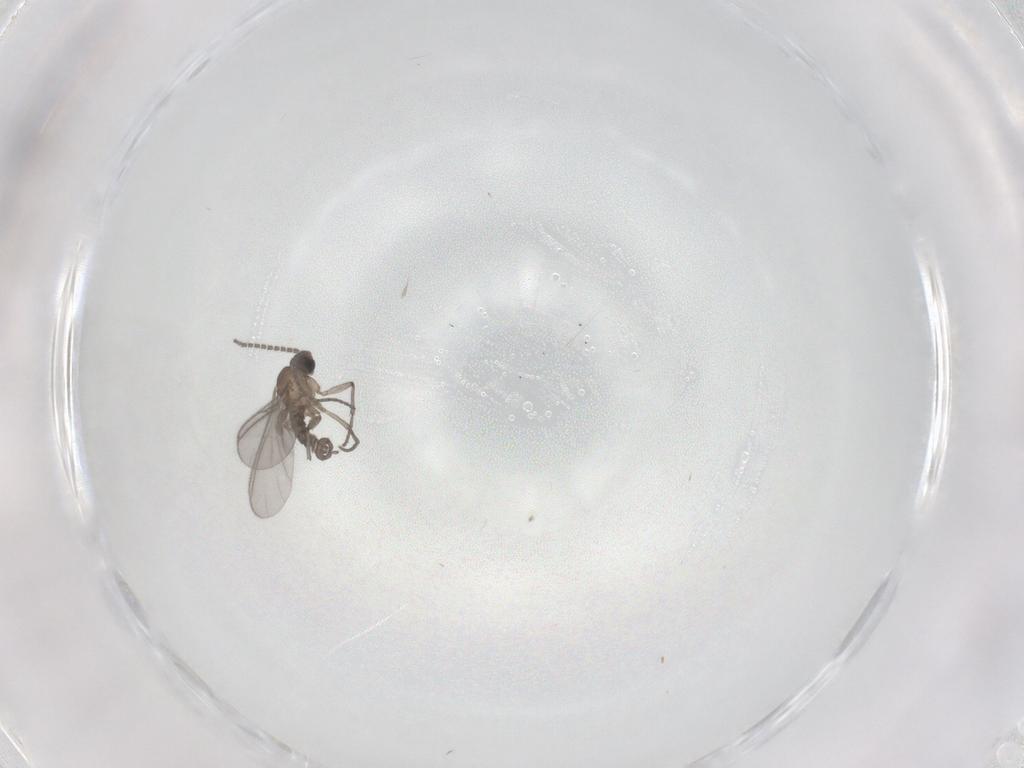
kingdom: Animalia
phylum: Arthropoda
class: Insecta
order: Diptera
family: Sciaridae
